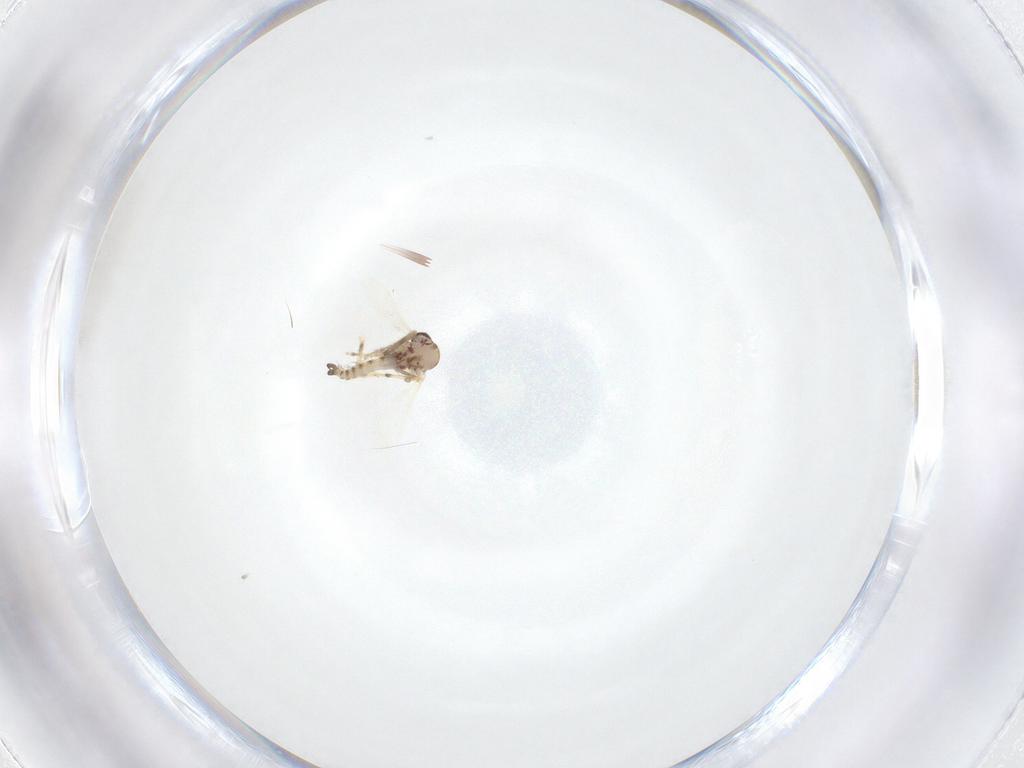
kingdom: Animalia
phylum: Arthropoda
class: Insecta
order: Diptera
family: Ceratopogonidae
